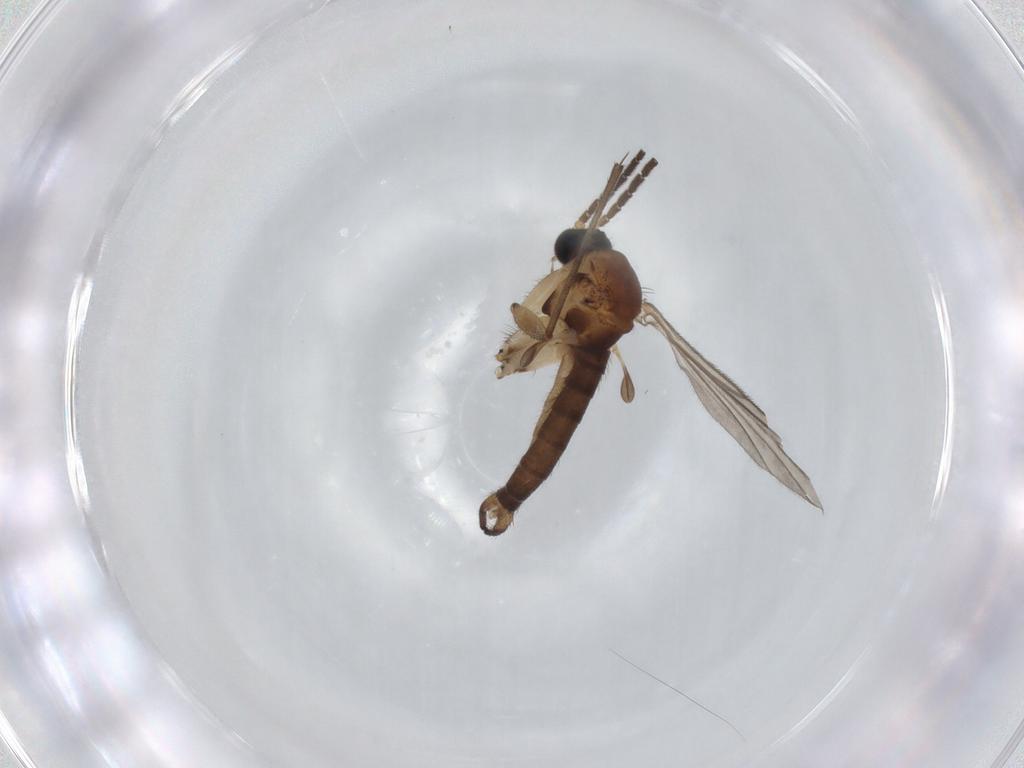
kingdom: Animalia
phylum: Arthropoda
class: Insecta
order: Diptera
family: Sciaridae
